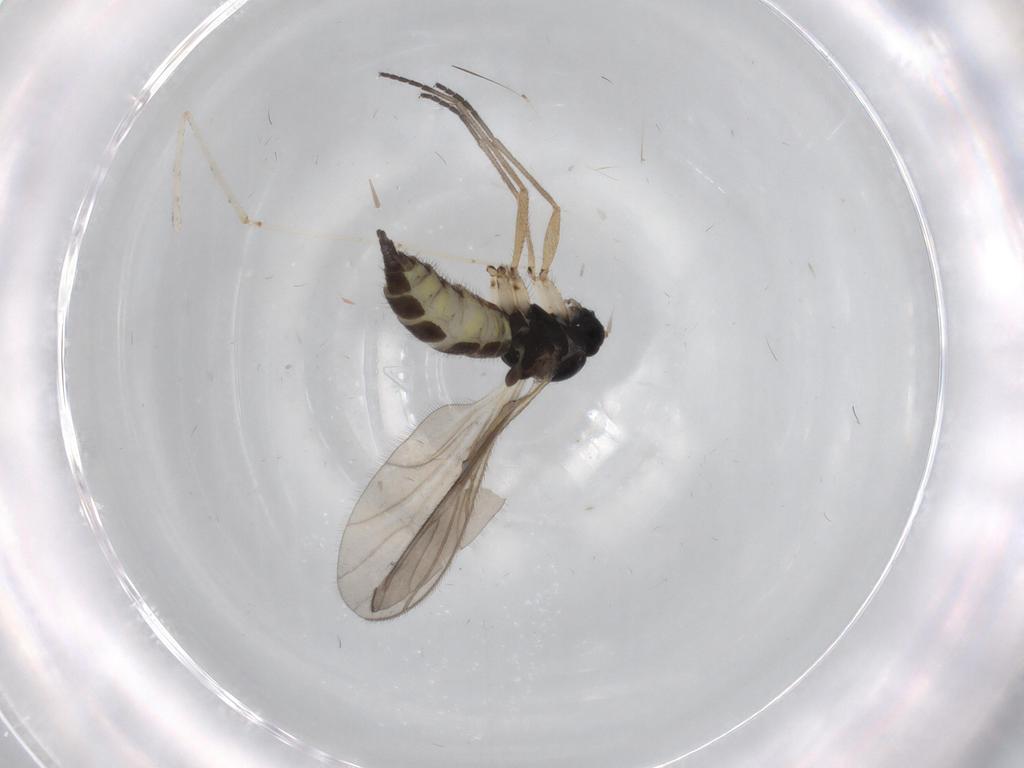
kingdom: Animalia
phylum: Arthropoda
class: Insecta
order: Diptera
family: Sciaridae
